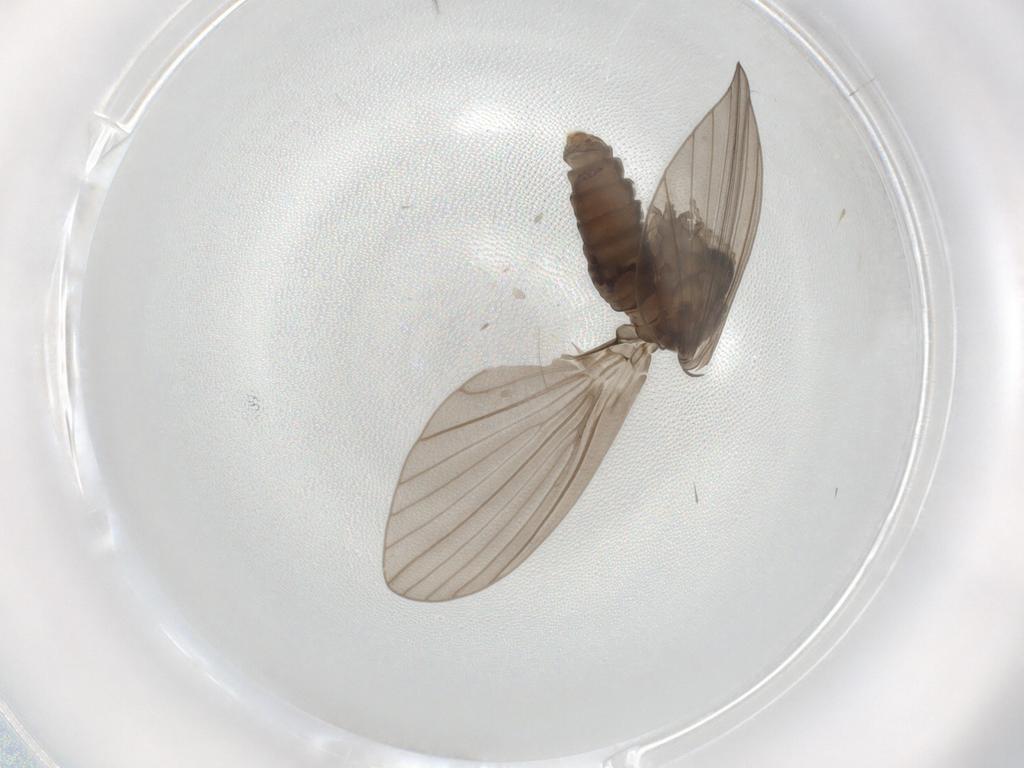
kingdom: Animalia
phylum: Arthropoda
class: Insecta
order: Diptera
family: Psychodidae
